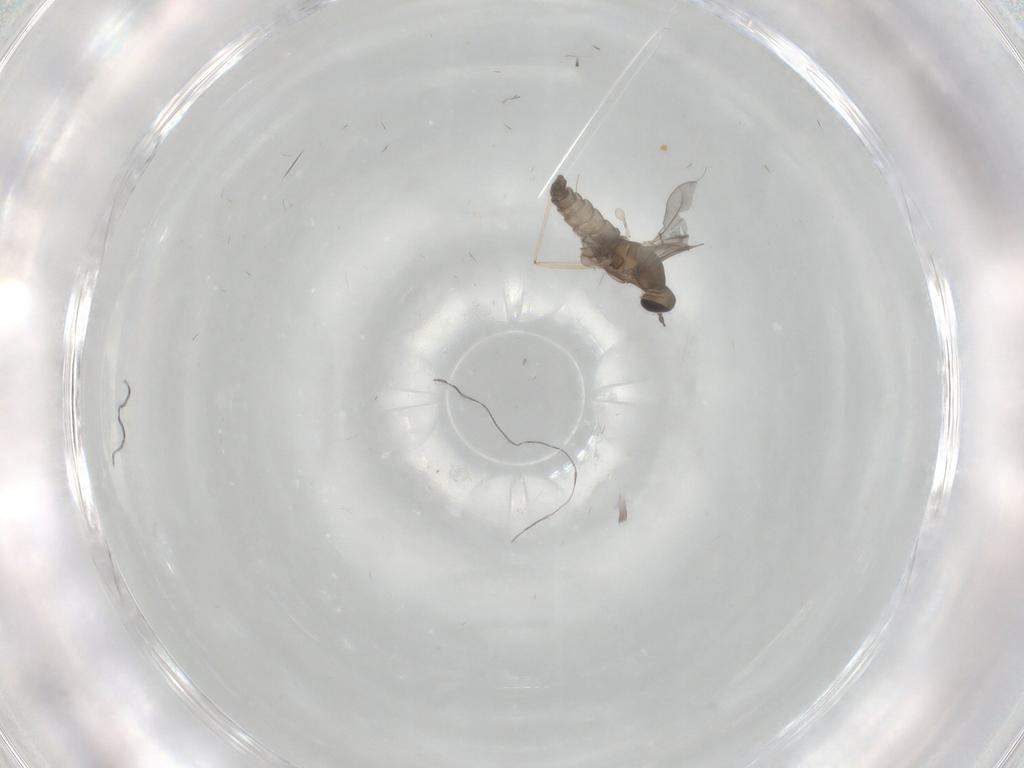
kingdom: Animalia
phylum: Arthropoda
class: Insecta
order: Diptera
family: Cecidomyiidae
